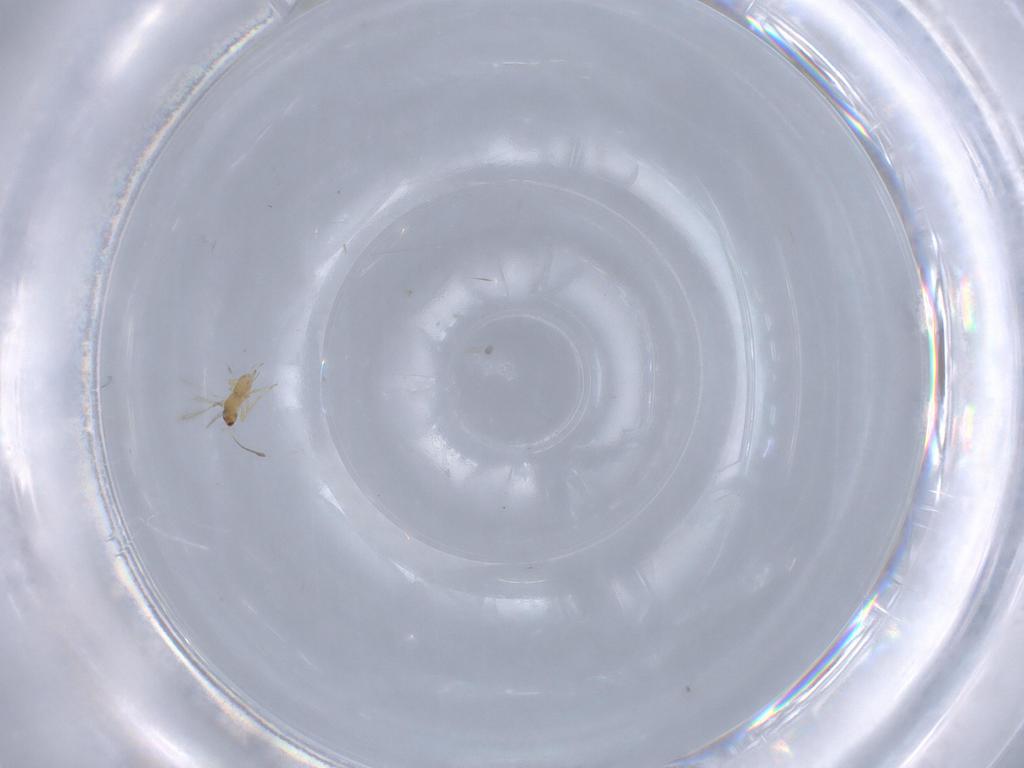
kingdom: Animalia
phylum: Arthropoda
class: Insecta
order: Hymenoptera
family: Mymaridae
